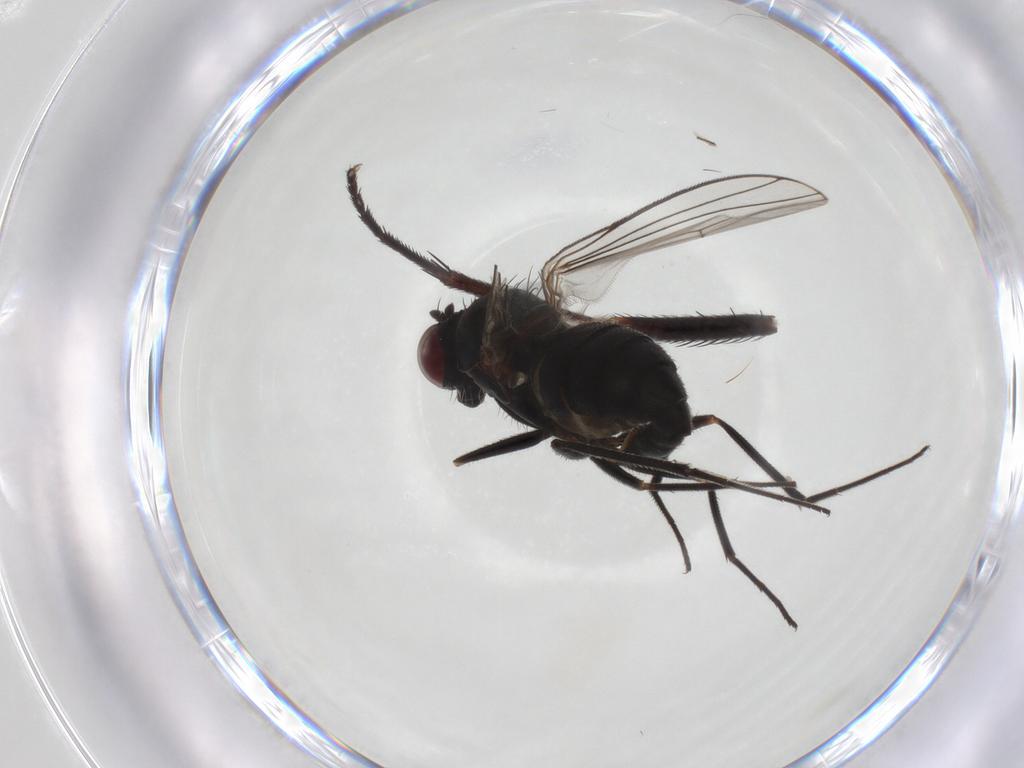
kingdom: Animalia
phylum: Arthropoda
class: Insecta
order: Diptera
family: Dolichopodidae
